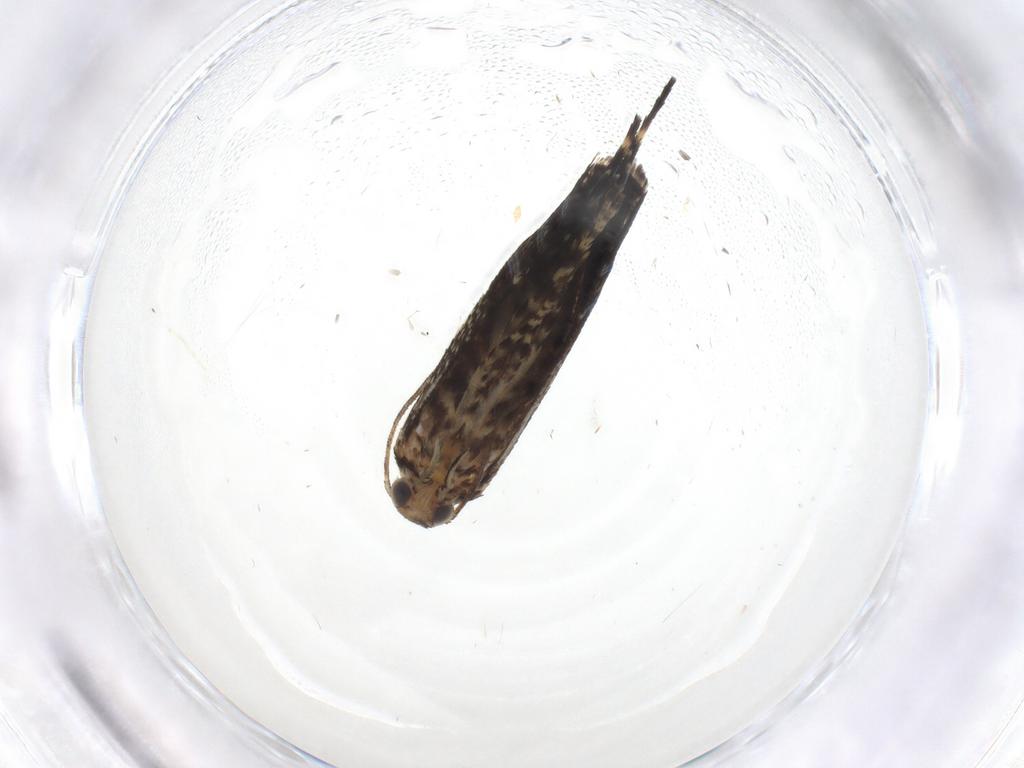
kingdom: Animalia
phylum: Arthropoda
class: Insecta
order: Lepidoptera
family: Geometridae
